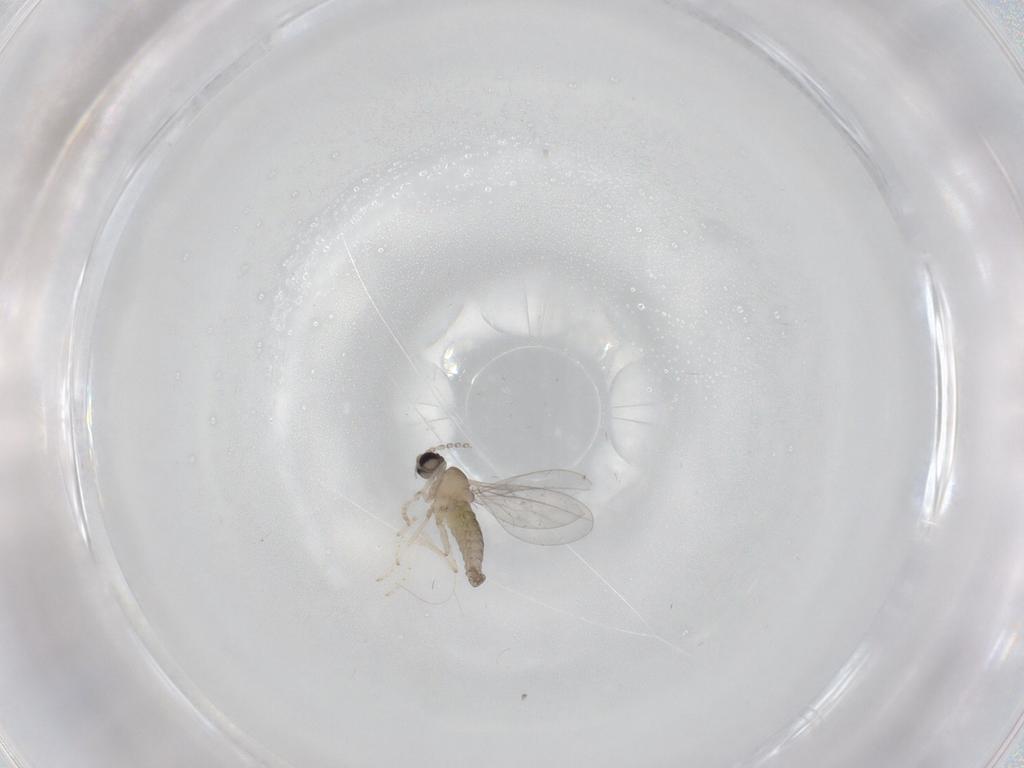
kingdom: Animalia
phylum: Arthropoda
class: Insecta
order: Diptera
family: Cecidomyiidae
